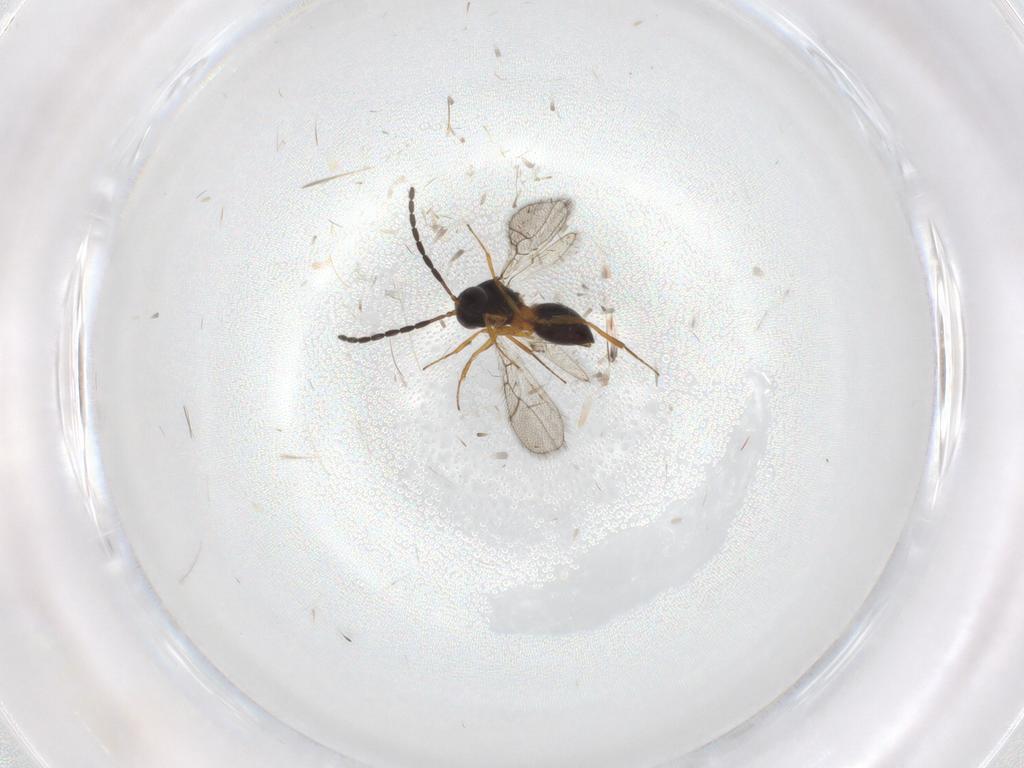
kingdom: Animalia
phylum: Arthropoda
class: Insecta
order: Hymenoptera
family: Figitidae
